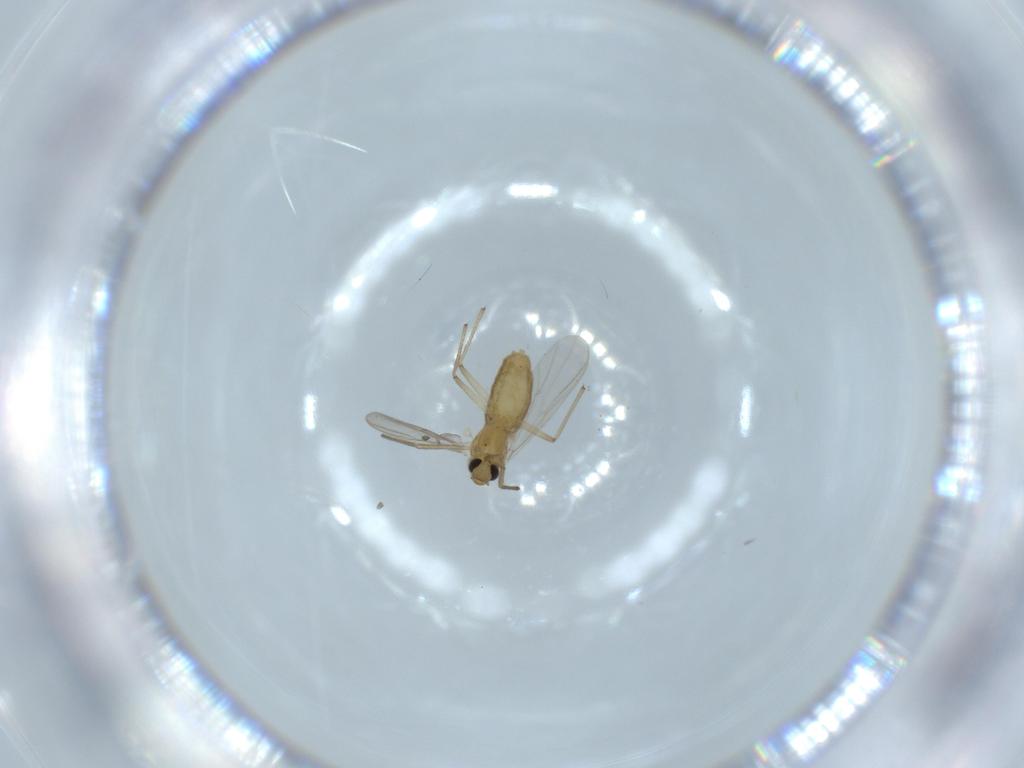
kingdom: Animalia
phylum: Arthropoda
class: Insecta
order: Diptera
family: Chironomidae
